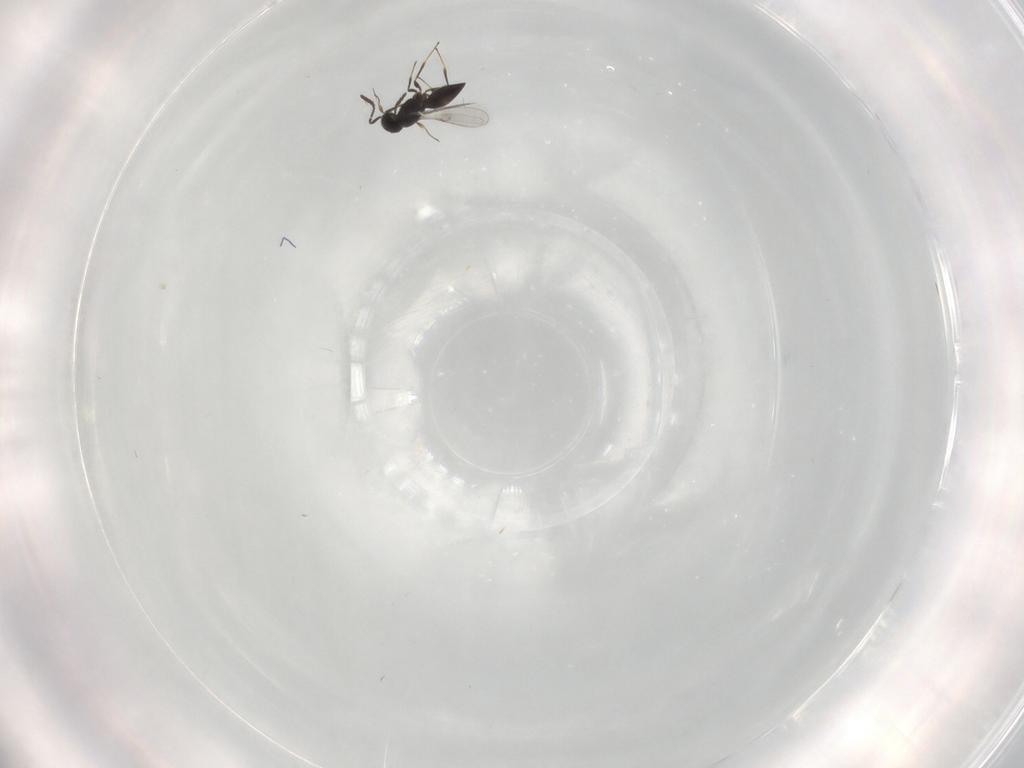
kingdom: Animalia
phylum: Arthropoda
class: Insecta
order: Hymenoptera
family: Scelionidae
